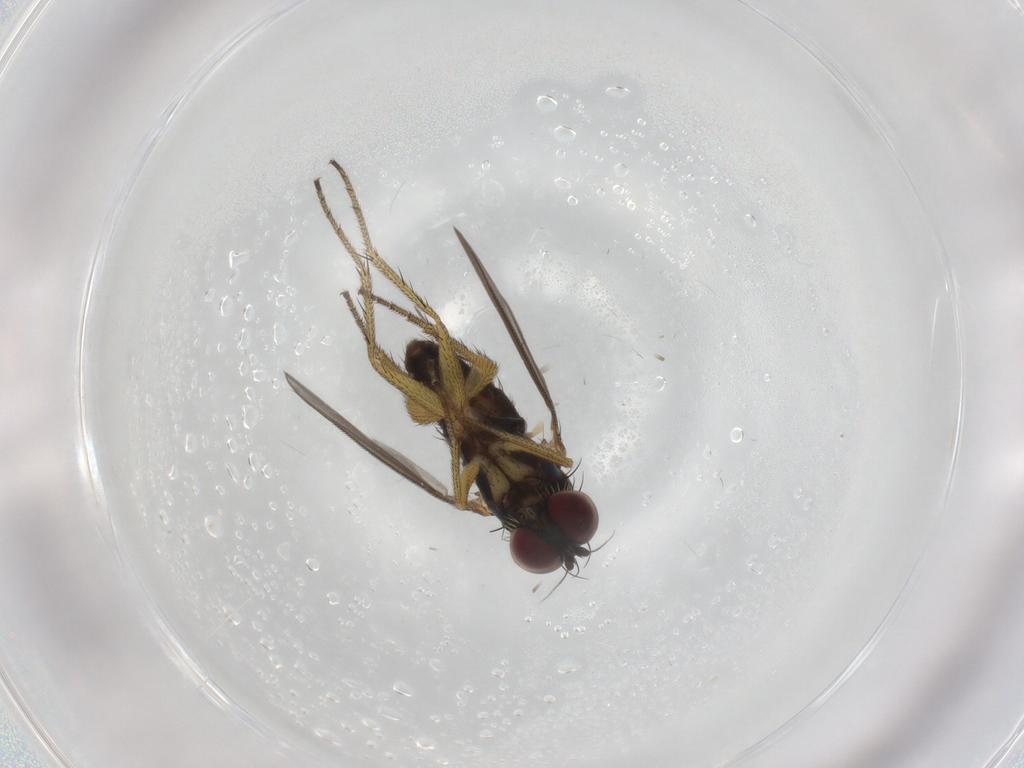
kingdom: Animalia
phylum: Arthropoda
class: Insecta
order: Diptera
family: Dolichopodidae
